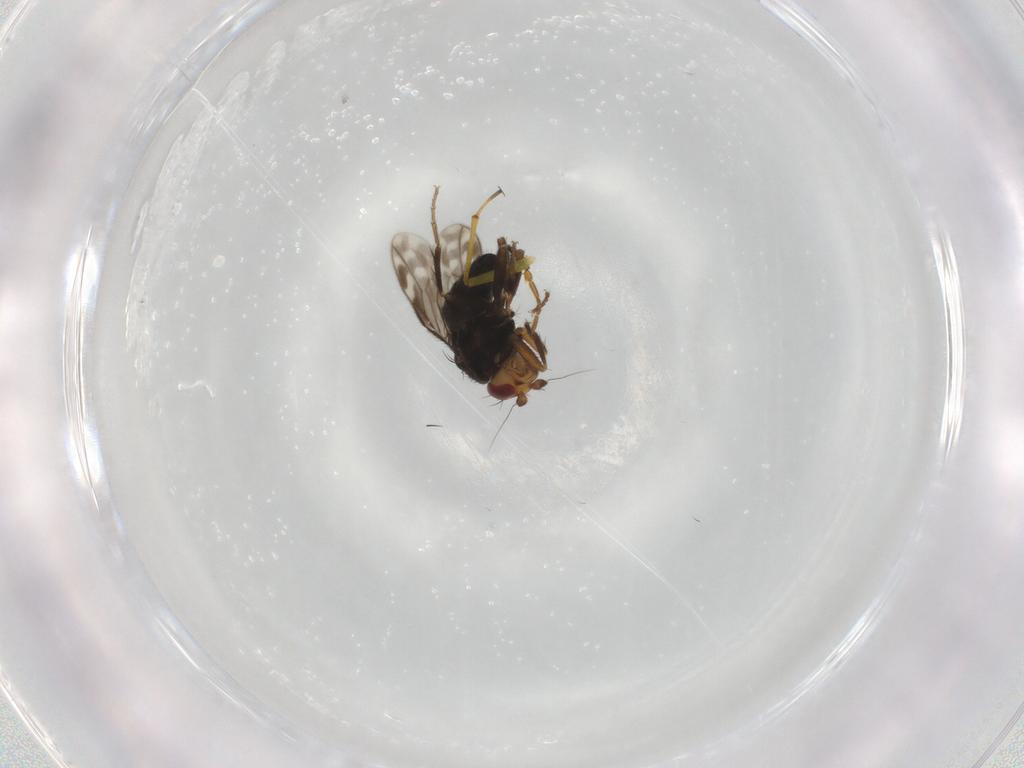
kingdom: Animalia
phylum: Arthropoda
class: Insecta
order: Diptera
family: Sphaeroceridae
